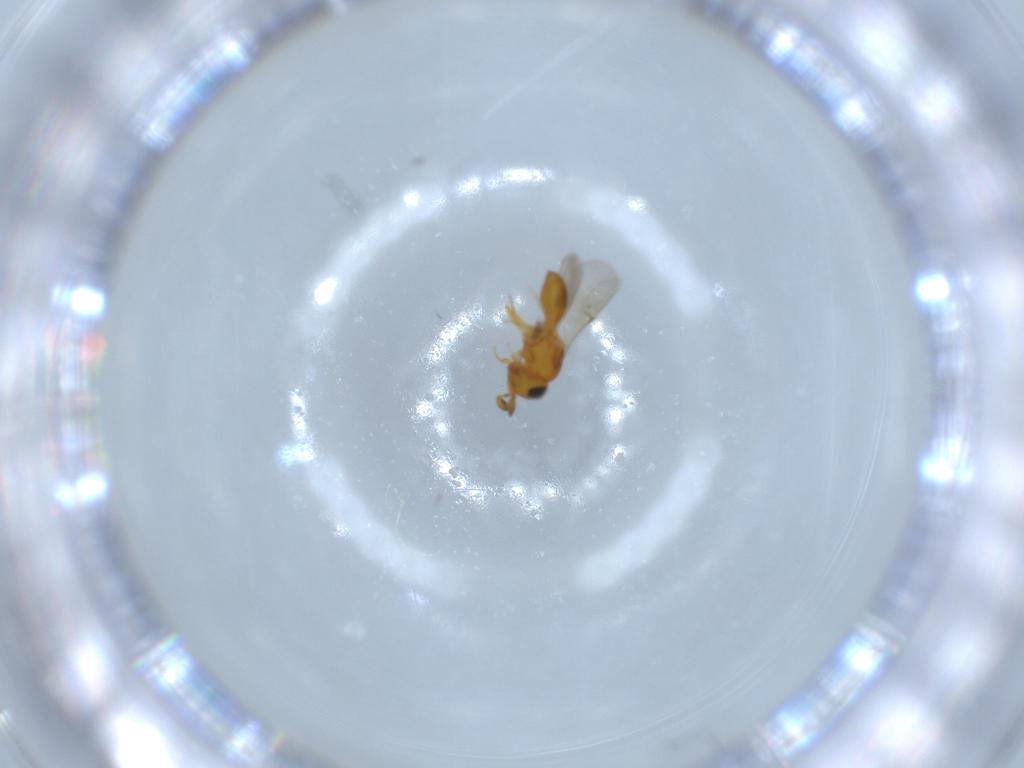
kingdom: Animalia
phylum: Arthropoda
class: Insecta
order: Hymenoptera
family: Scelionidae
